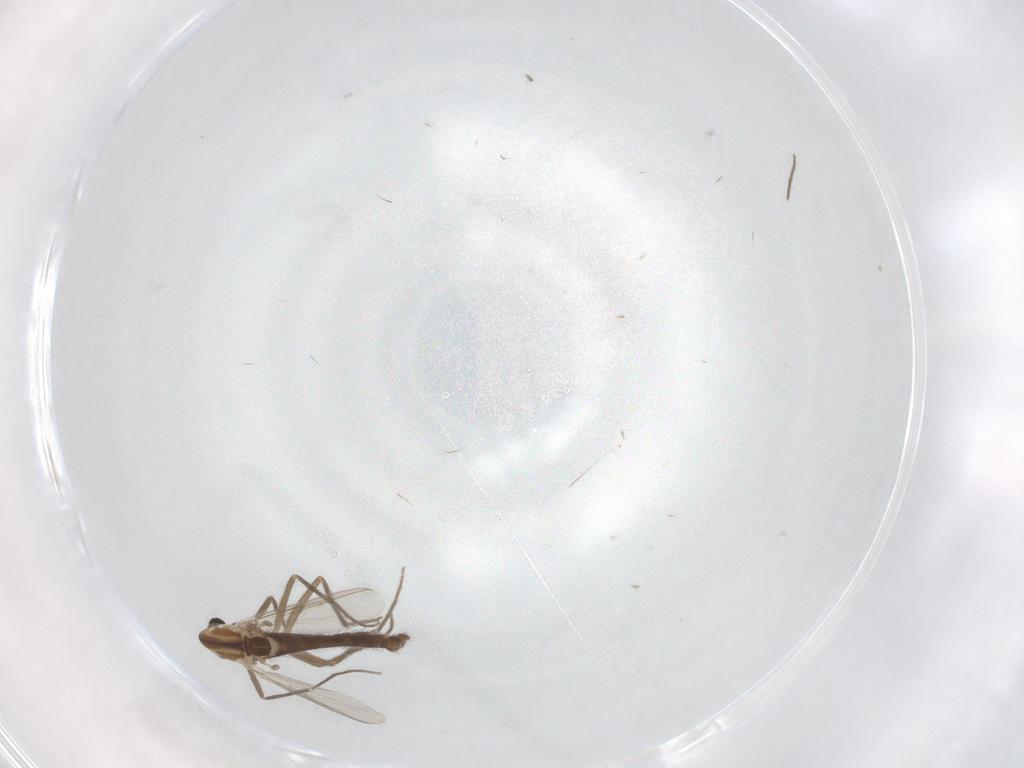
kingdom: Animalia
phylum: Arthropoda
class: Insecta
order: Diptera
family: Chironomidae
